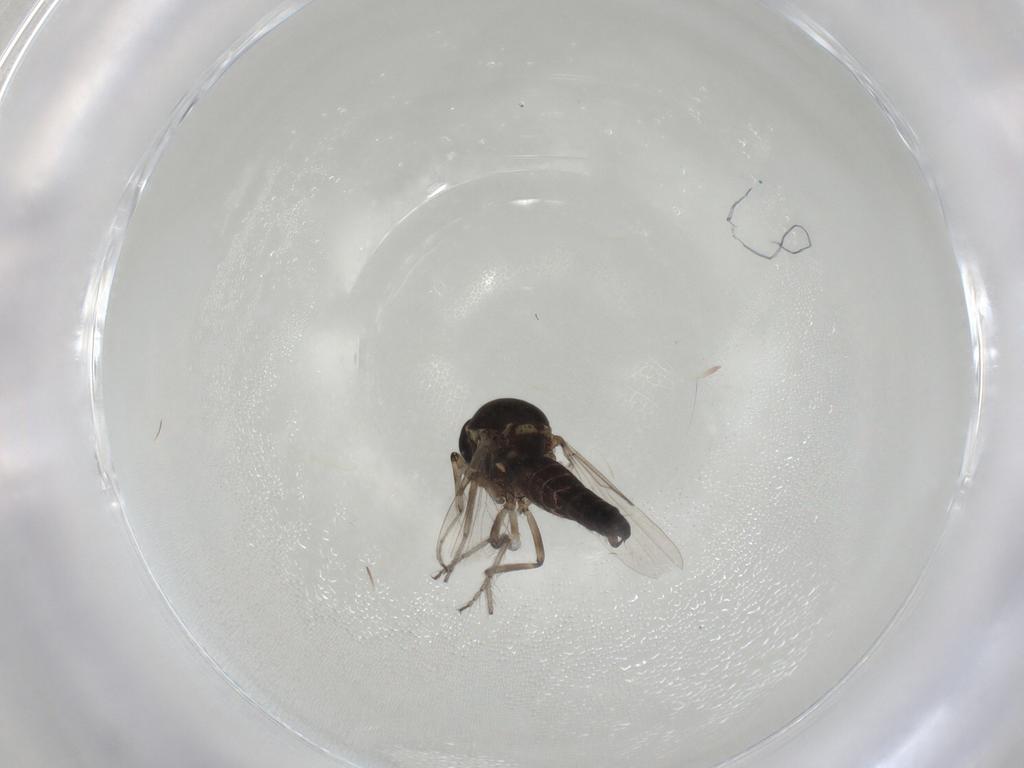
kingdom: Animalia
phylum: Arthropoda
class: Insecta
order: Diptera
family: Ceratopogonidae
